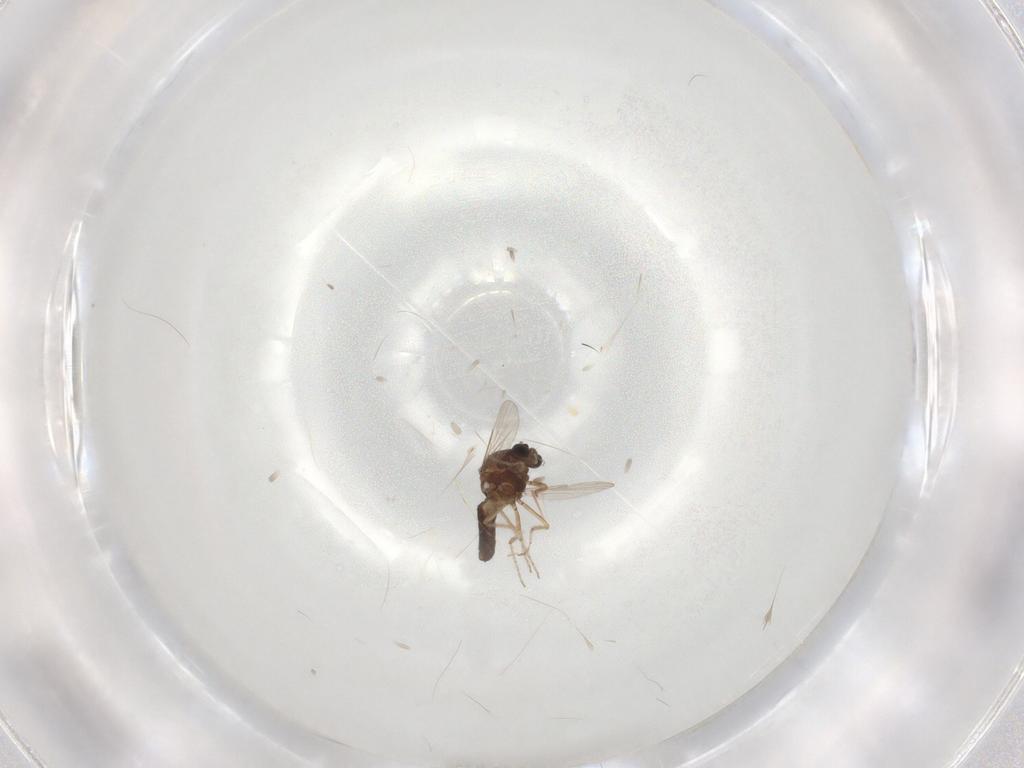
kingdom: Animalia
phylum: Arthropoda
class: Insecta
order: Diptera
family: Ceratopogonidae
